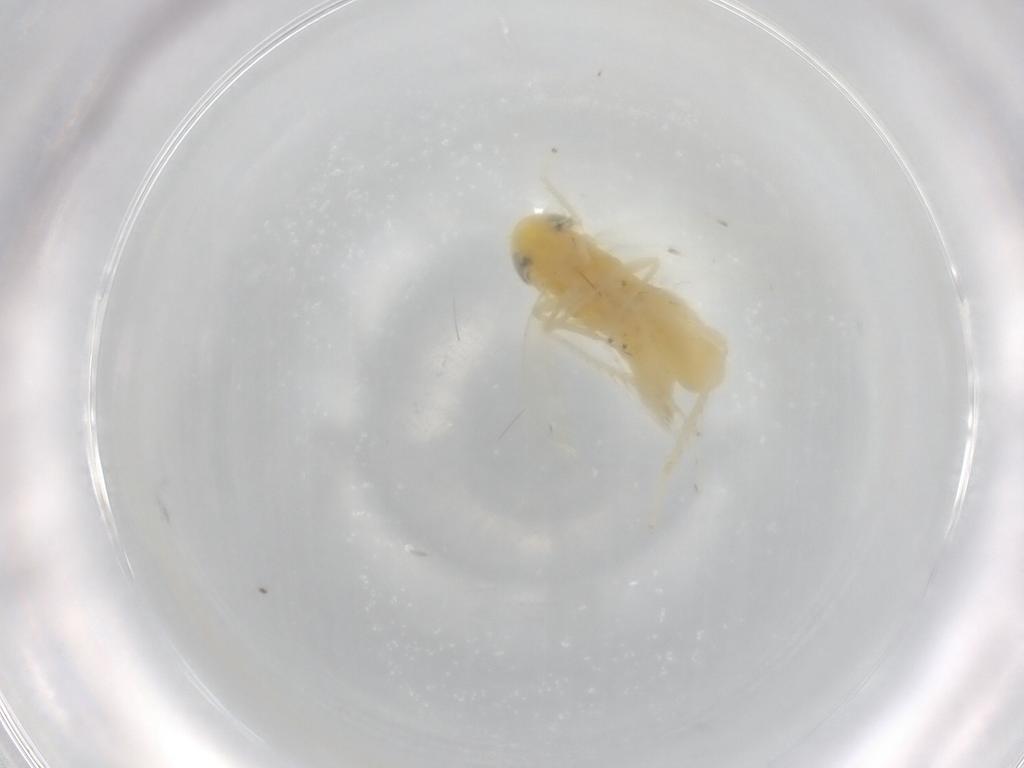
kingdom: Animalia
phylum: Arthropoda
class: Insecta
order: Hemiptera
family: Cicadellidae
